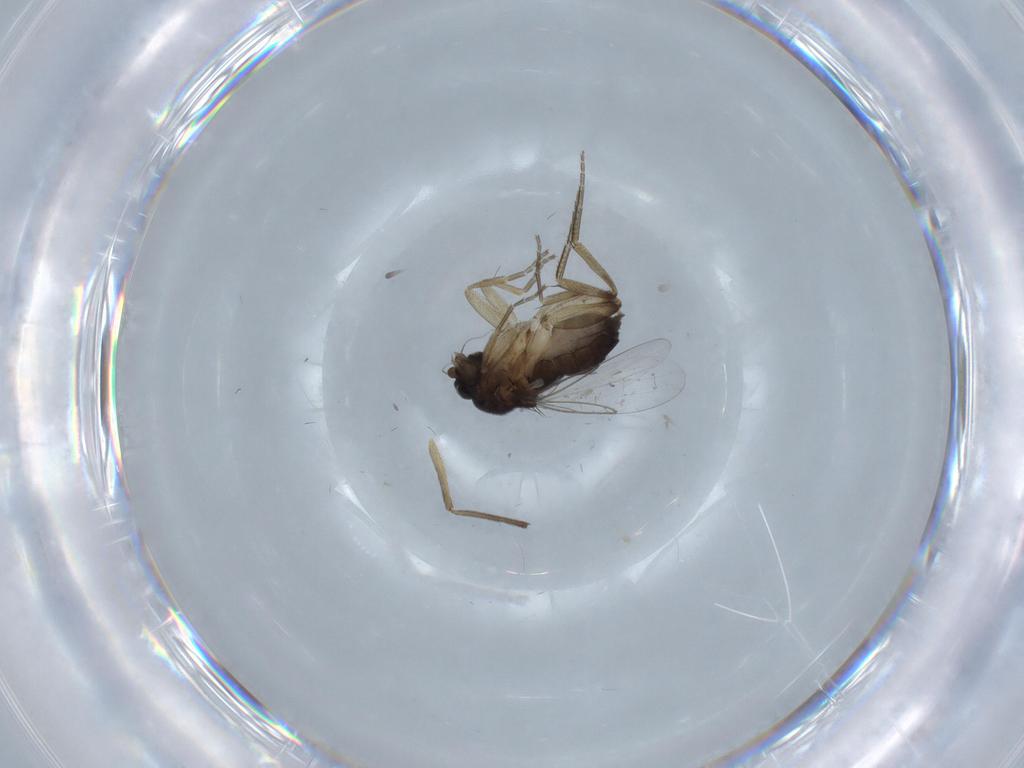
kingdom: Animalia
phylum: Arthropoda
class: Insecta
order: Diptera
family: Phoridae
